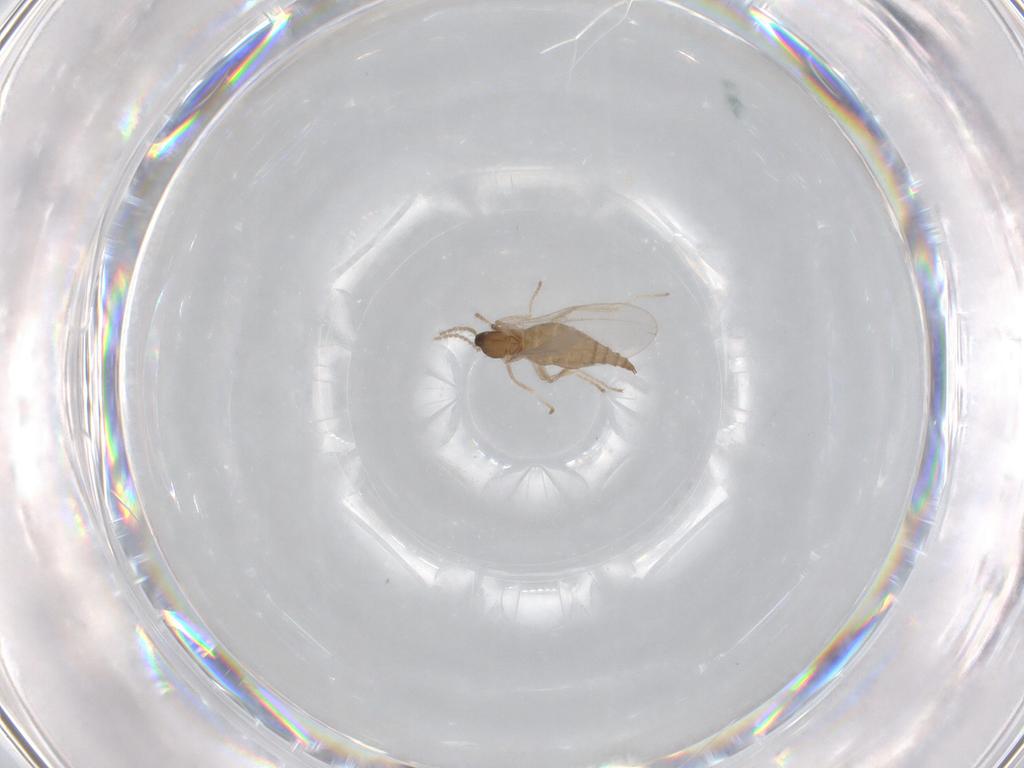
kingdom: Animalia
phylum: Arthropoda
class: Insecta
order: Diptera
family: Cecidomyiidae
